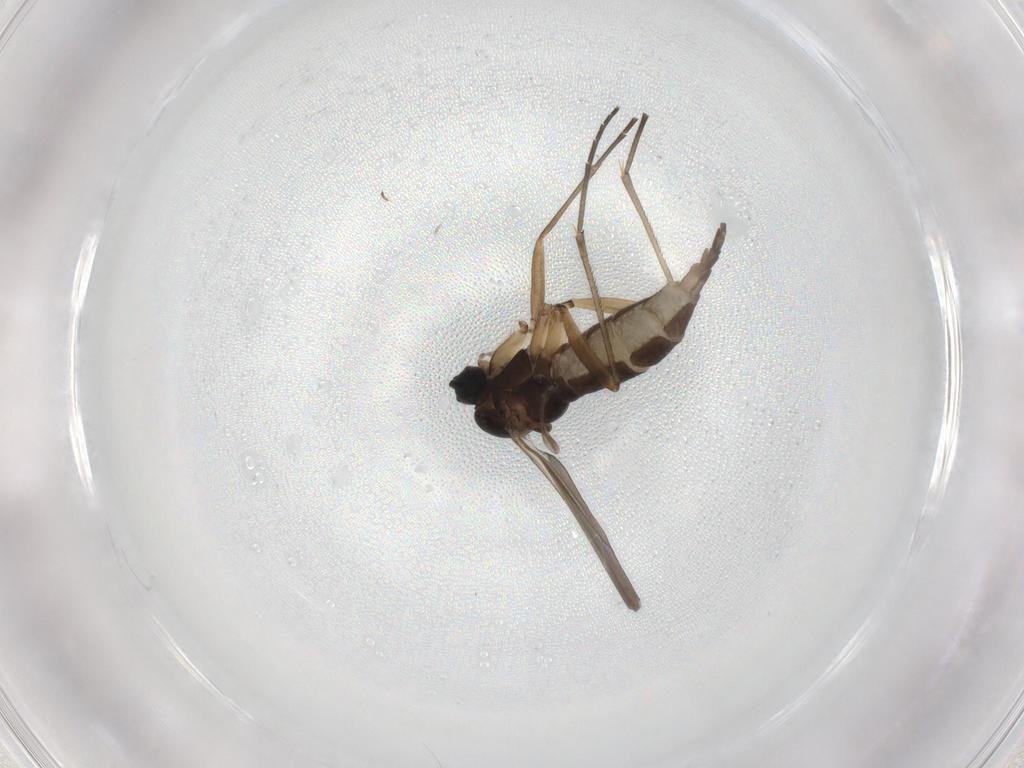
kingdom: Animalia
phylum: Arthropoda
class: Insecta
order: Diptera
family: Sciaridae
